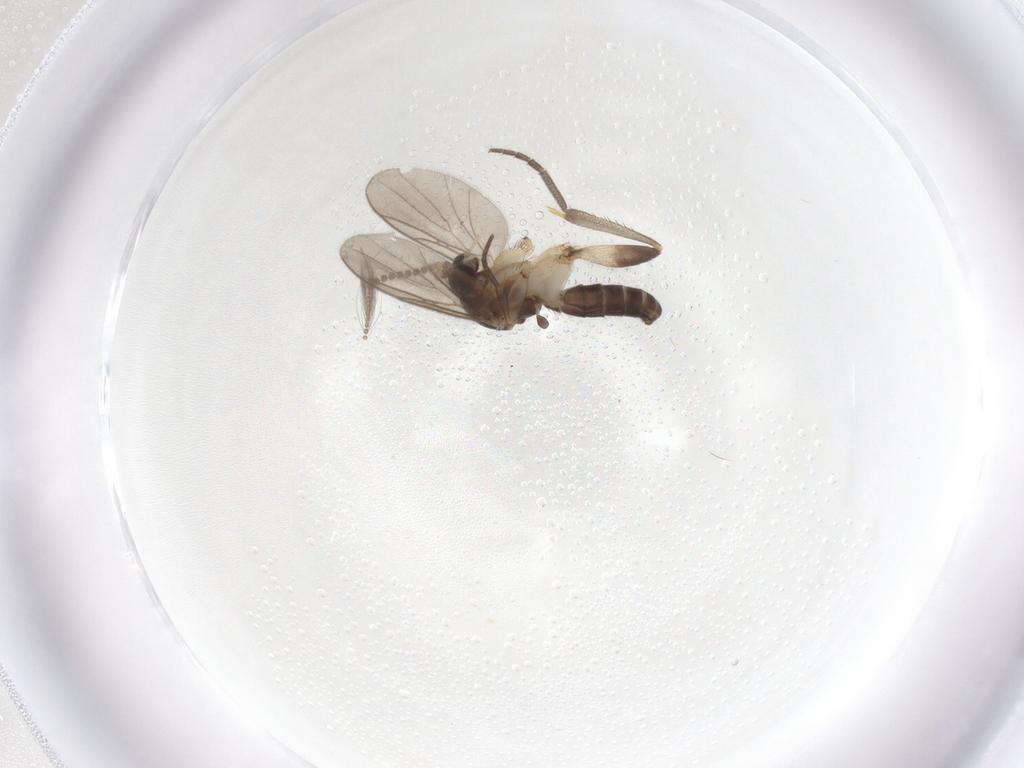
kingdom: Animalia
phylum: Arthropoda
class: Insecta
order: Diptera
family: Mycetophilidae
